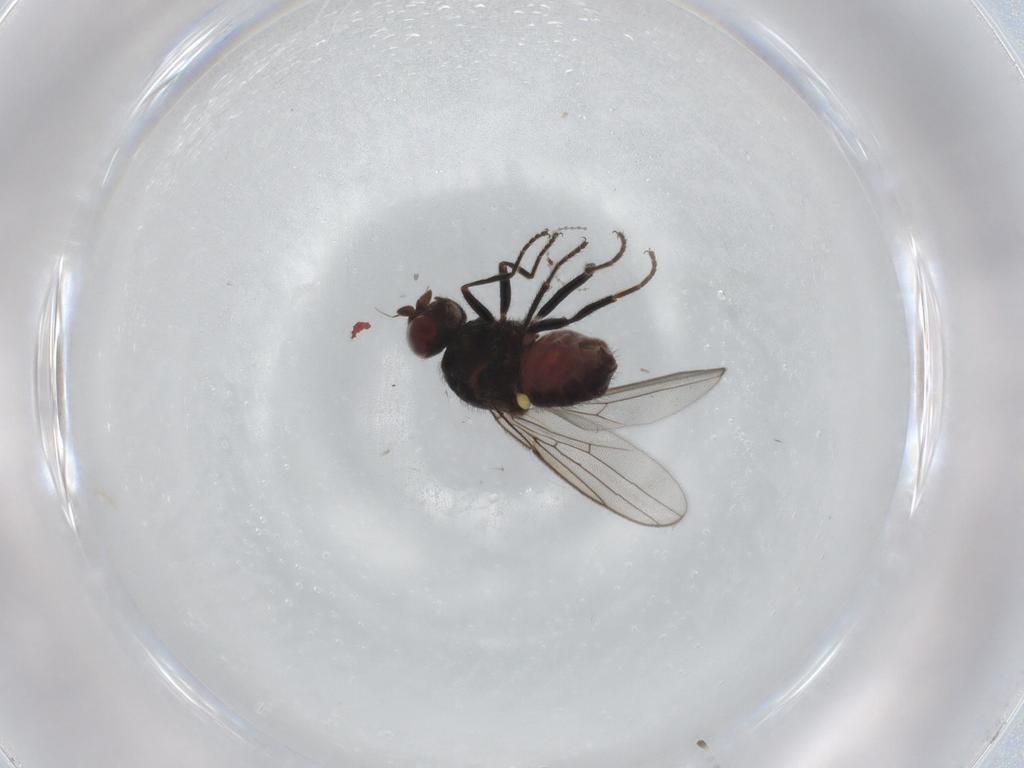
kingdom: Animalia
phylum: Arthropoda
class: Insecta
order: Diptera
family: Chloropidae
